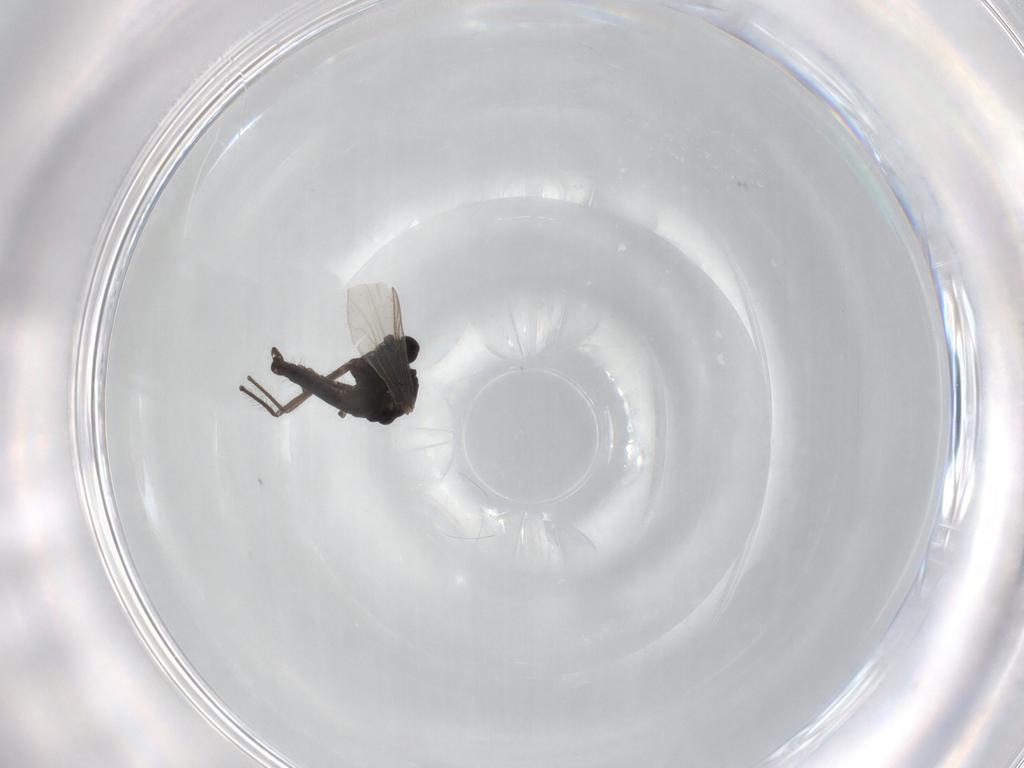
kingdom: Animalia
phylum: Arthropoda
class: Insecta
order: Diptera
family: Chironomidae
